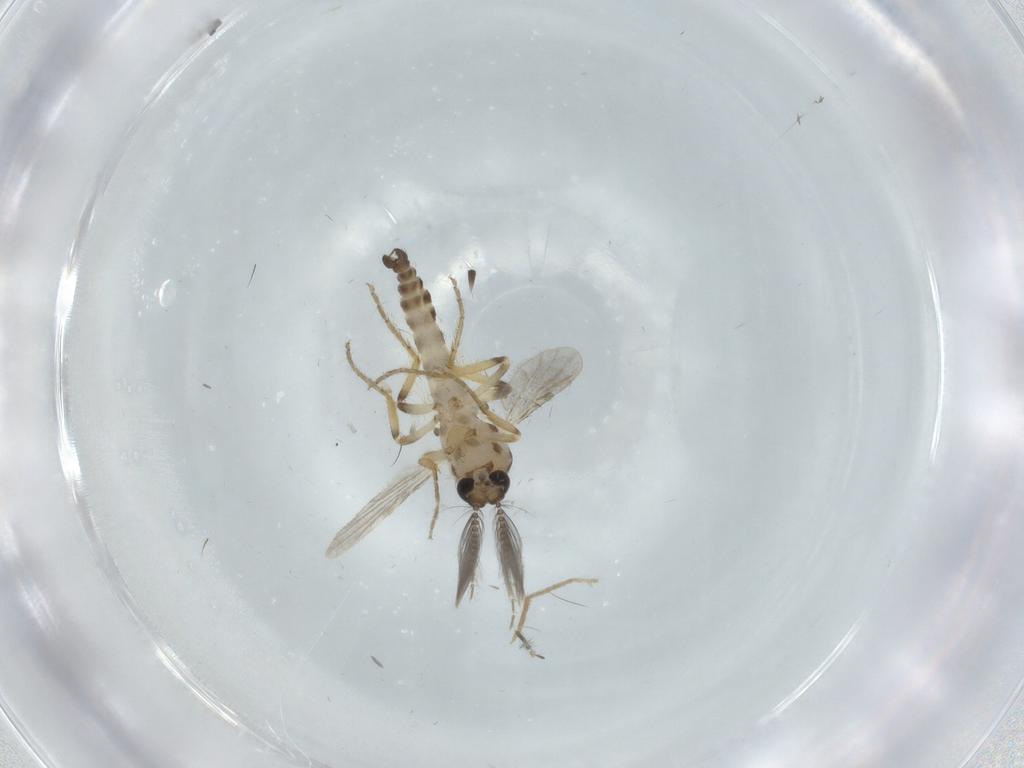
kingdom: Animalia
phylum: Arthropoda
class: Insecta
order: Diptera
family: Ceratopogonidae
